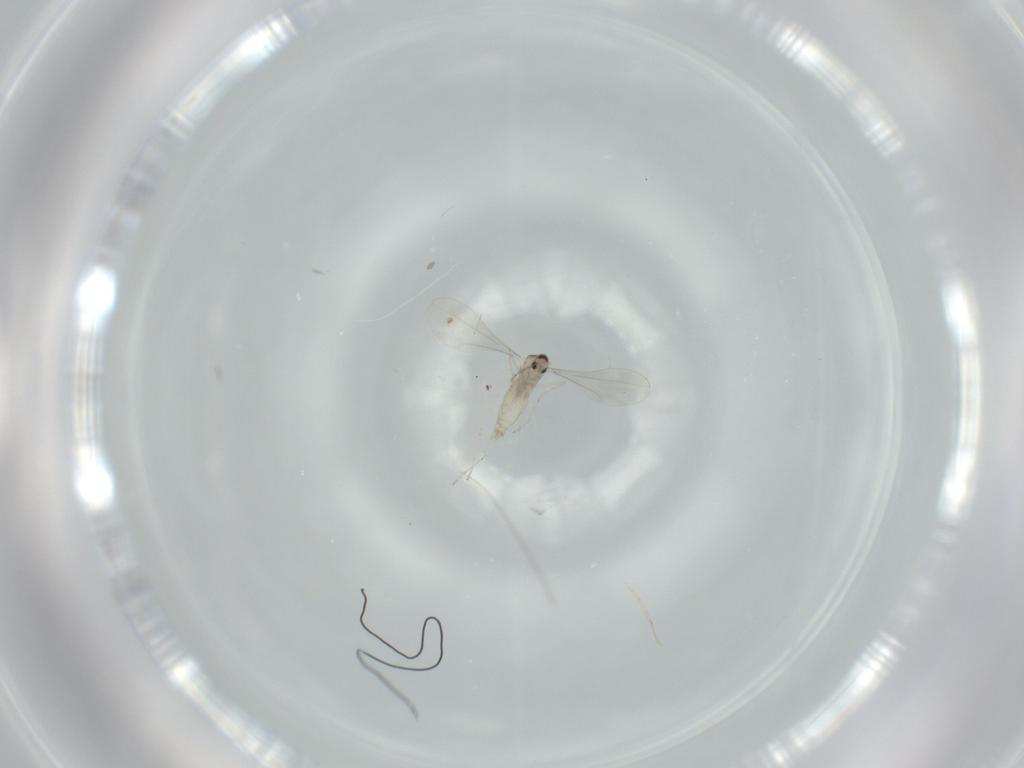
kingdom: Animalia
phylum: Arthropoda
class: Insecta
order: Diptera
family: Cecidomyiidae
